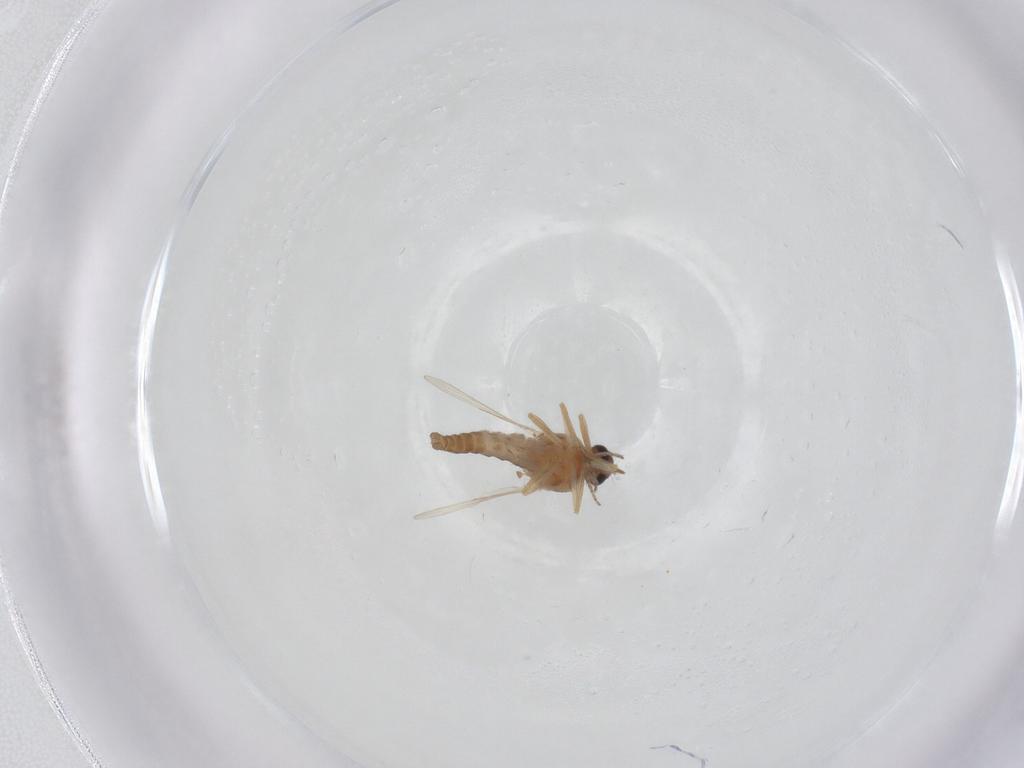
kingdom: Animalia
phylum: Arthropoda
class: Insecta
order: Diptera
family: Ceratopogonidae
